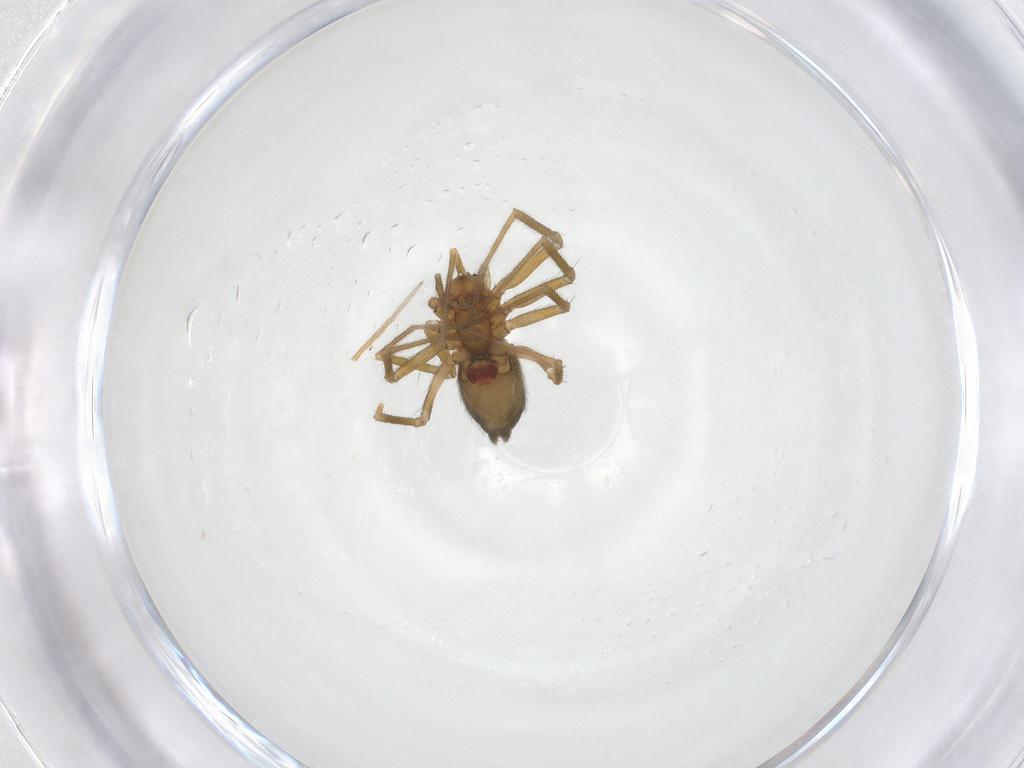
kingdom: Animalia
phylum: Arthropoda
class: Arachnida
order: Araneae
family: Linyphiidae
